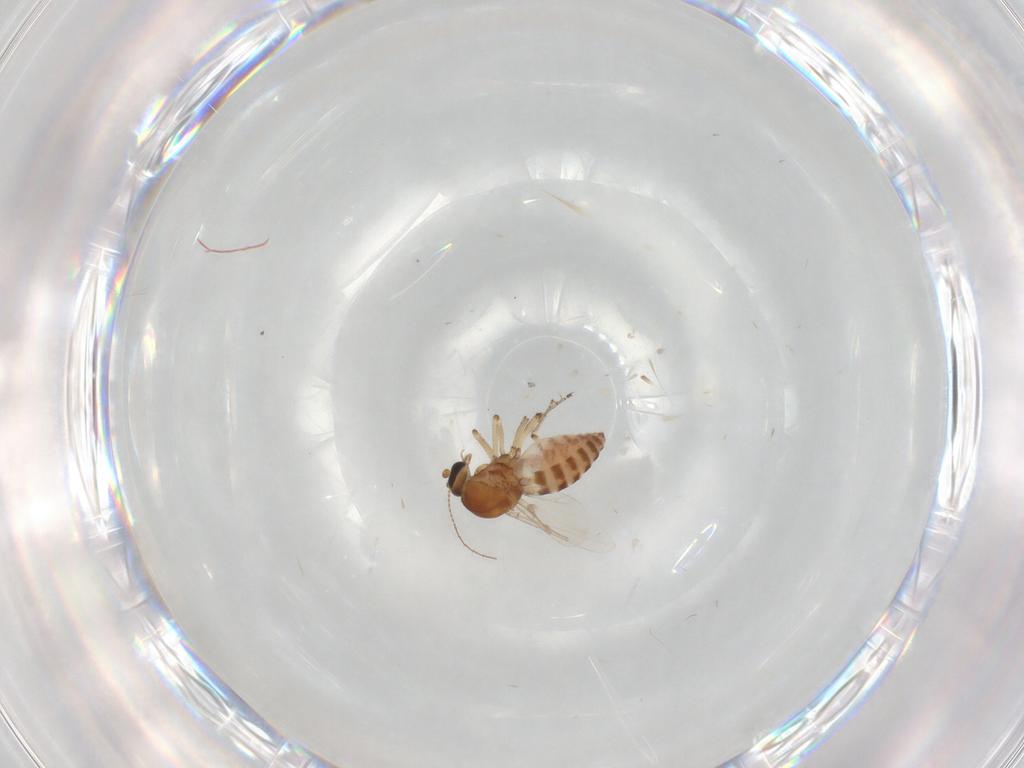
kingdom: Animalia
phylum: Arthropoda
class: Insecta
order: Diptera
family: Ceratopogonidae
